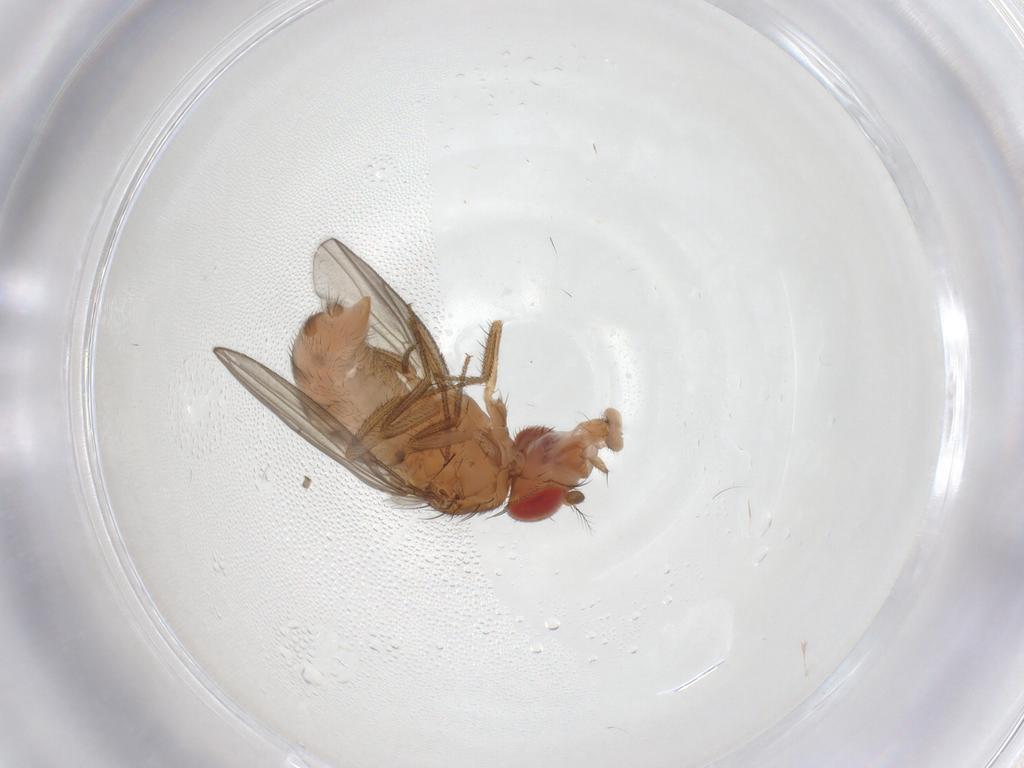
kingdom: Animalia
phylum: Arthropoda
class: Insecta
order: Diptera
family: Drosophilidae
